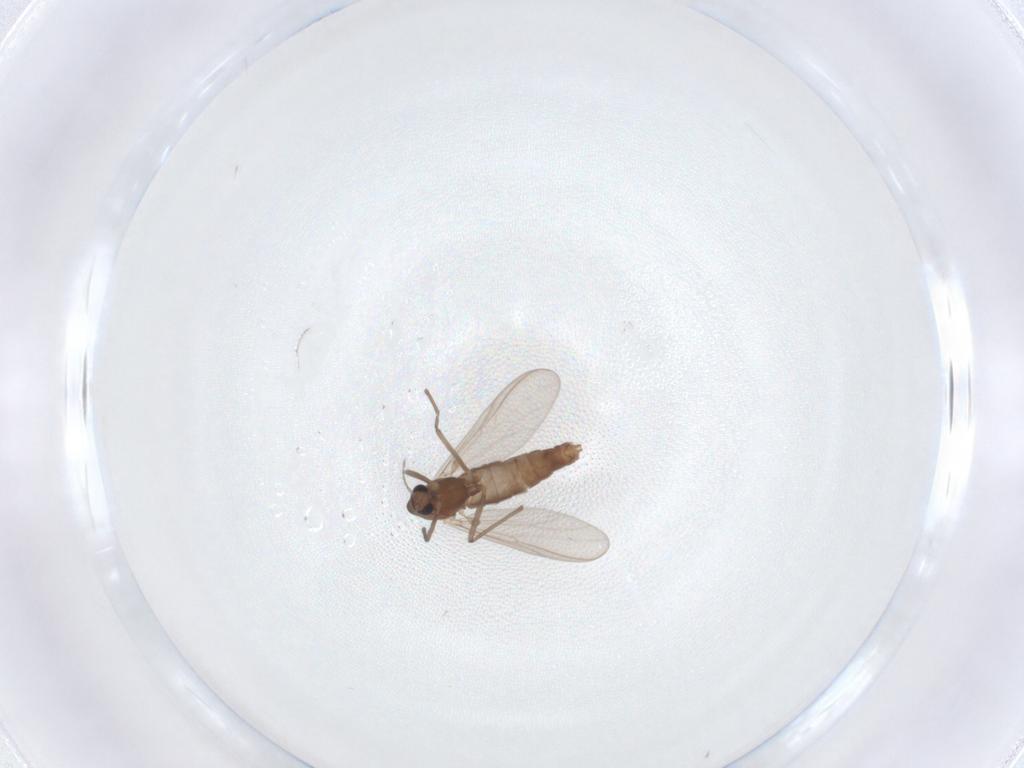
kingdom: Animalia
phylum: Arthropoda
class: Insecta
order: Diptera
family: Chironomidae
